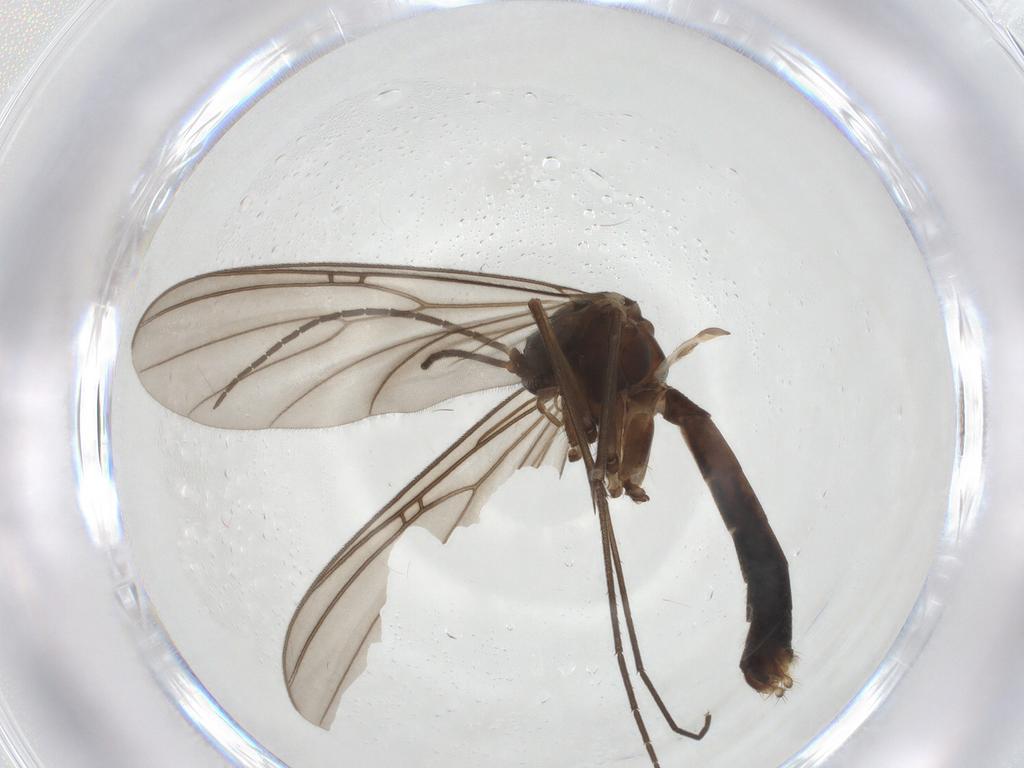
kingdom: Animalia
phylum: Arthropoda
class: Insecta
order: Diptera
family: Mycetophilidae
